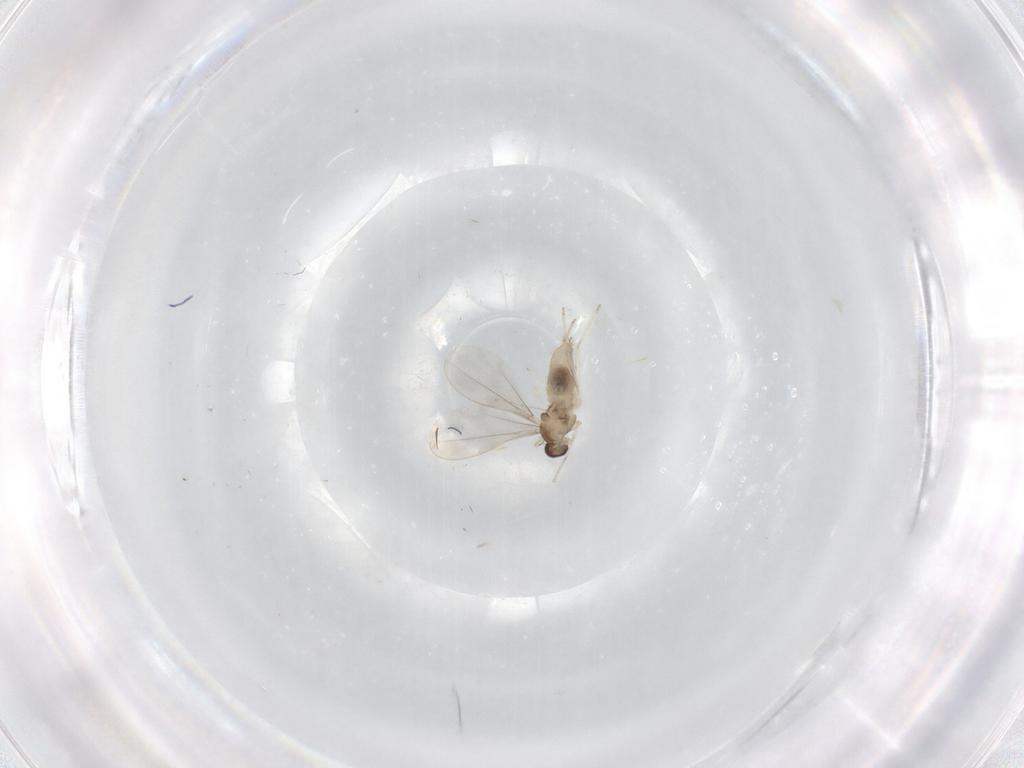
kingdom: Animalia
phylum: Arthropoda
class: Insecta
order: Diptera
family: Cecidomyiidae
